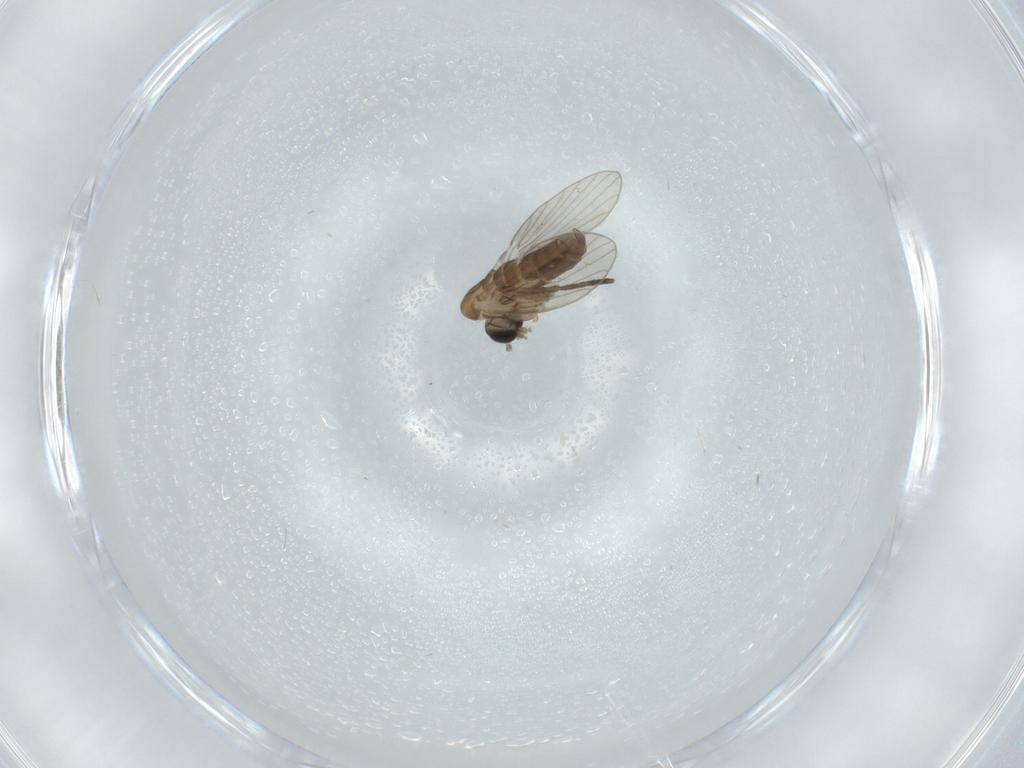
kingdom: Animalia
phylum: Arthropoda
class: Insecta
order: Diptera
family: Psychodidae
